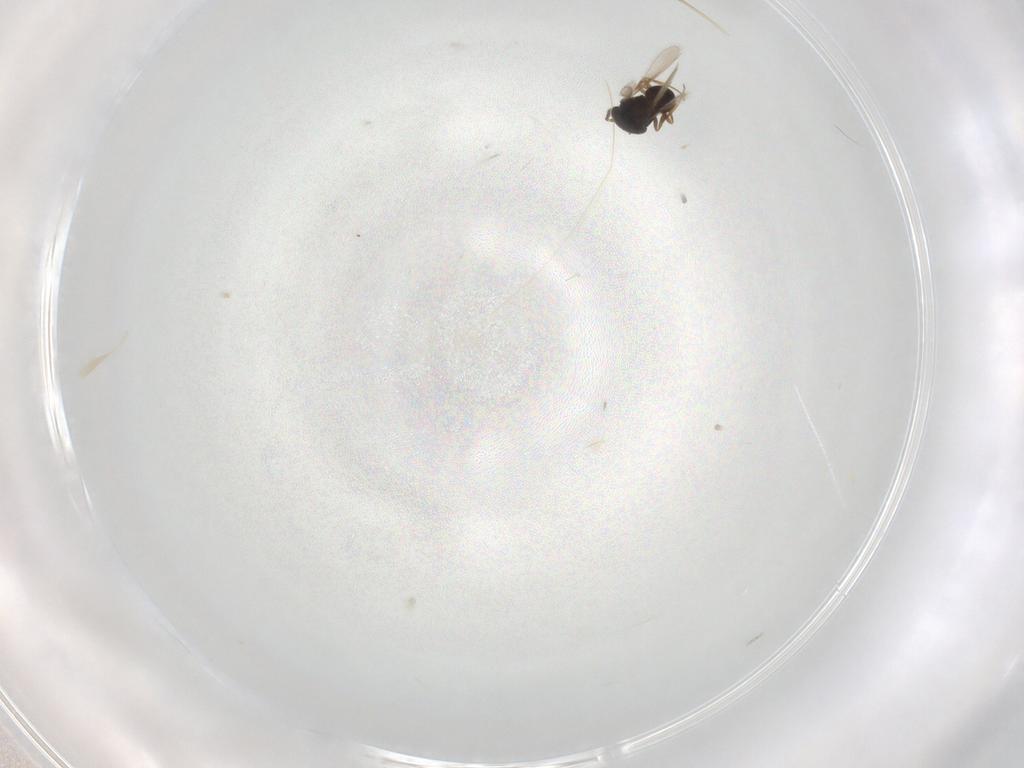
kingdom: Animalia
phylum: Arthropoda
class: Insecta
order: Hymenoptera
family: Scelionidae
